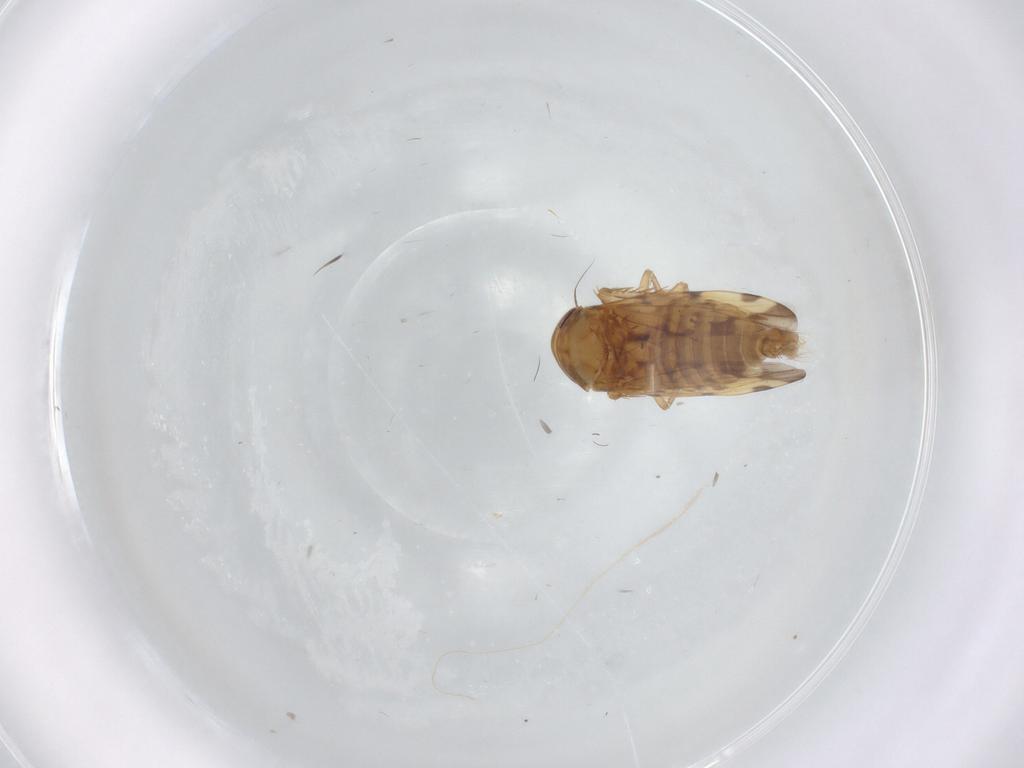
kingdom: Animalia
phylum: Arthropoda
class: Insecta
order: Hemiptera
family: Cicadellidae
